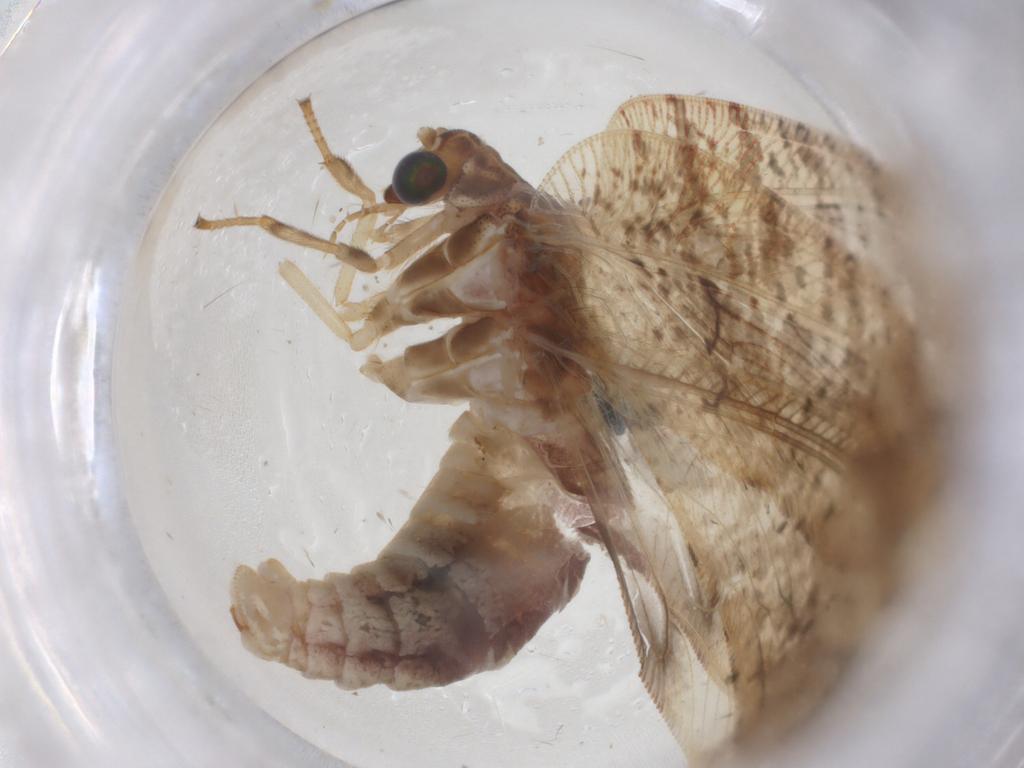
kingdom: Animalia
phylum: Arthropoda
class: Insecta
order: Neuroptera
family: Hemerobiidae
